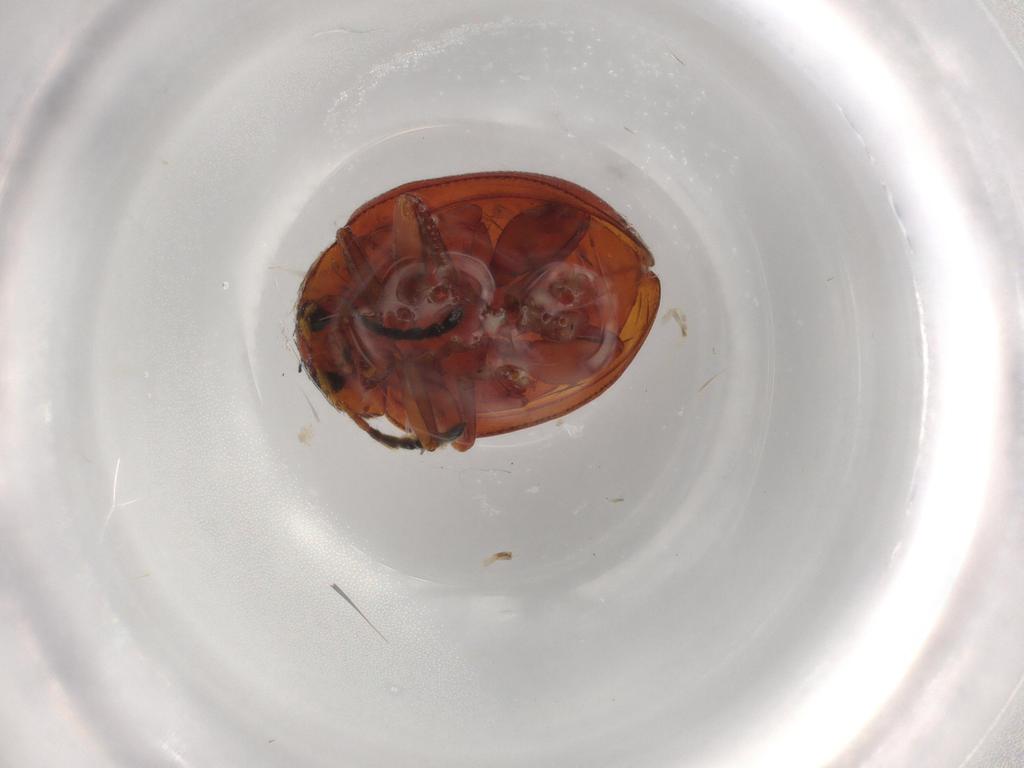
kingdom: Animalia
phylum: Arthropoda
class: Insecta
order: Coleoptera
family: Chrysomelidae
